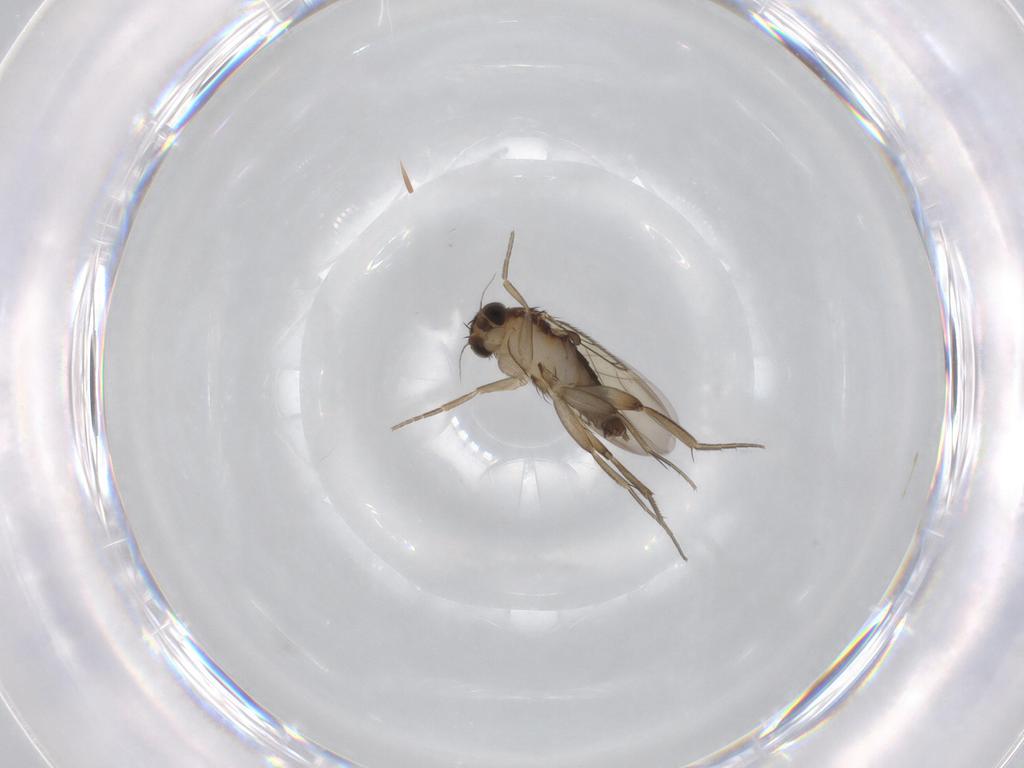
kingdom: Animalia
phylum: Arthropoda
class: Insecta
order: Diptera
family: Phoridae
